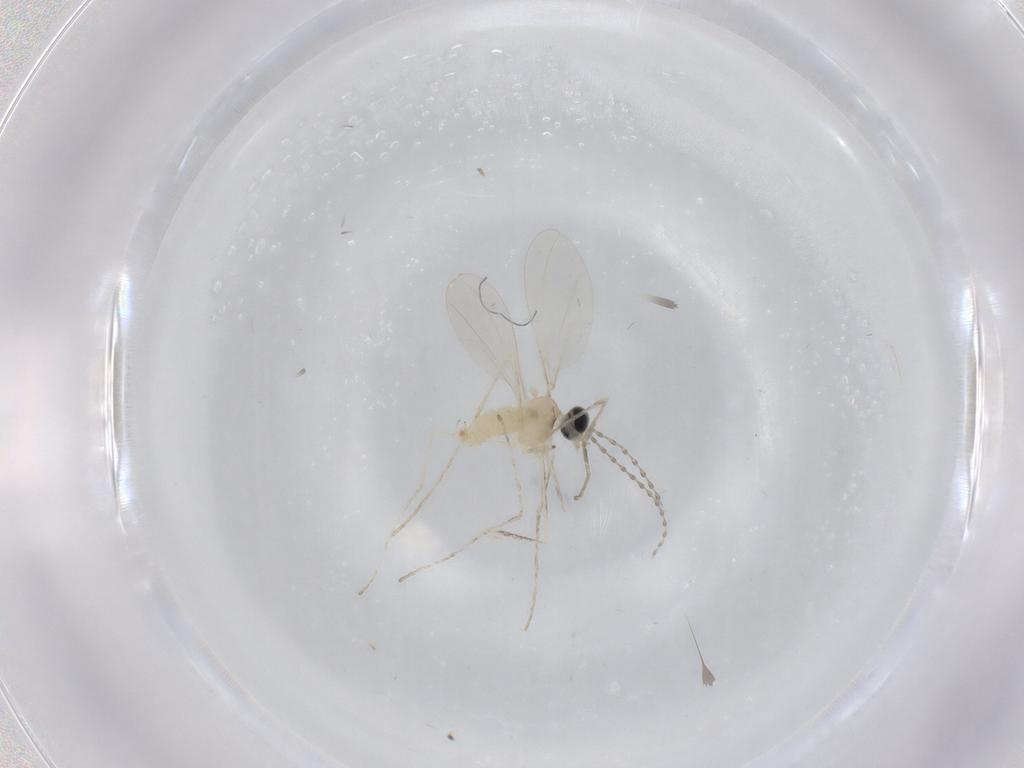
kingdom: Animalia
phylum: Arthropoda
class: Insecta
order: Diptera
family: Cecidomyiidae
